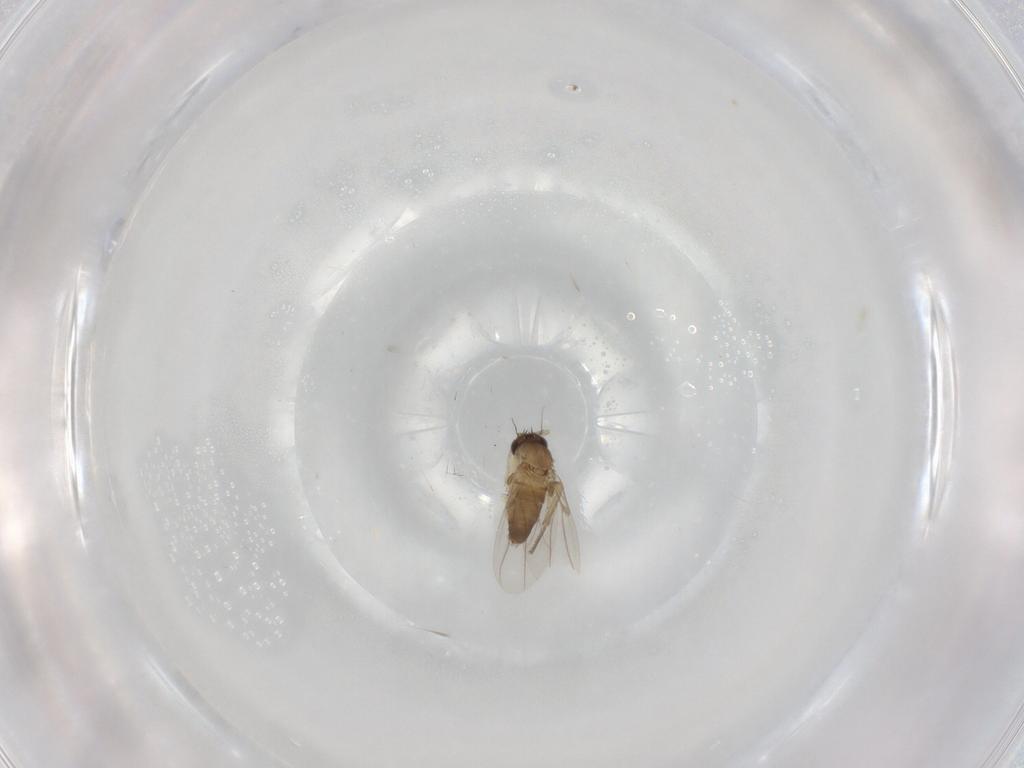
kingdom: Animalia
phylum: Arthropoda
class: Insecta
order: Diptera
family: Phoridae
